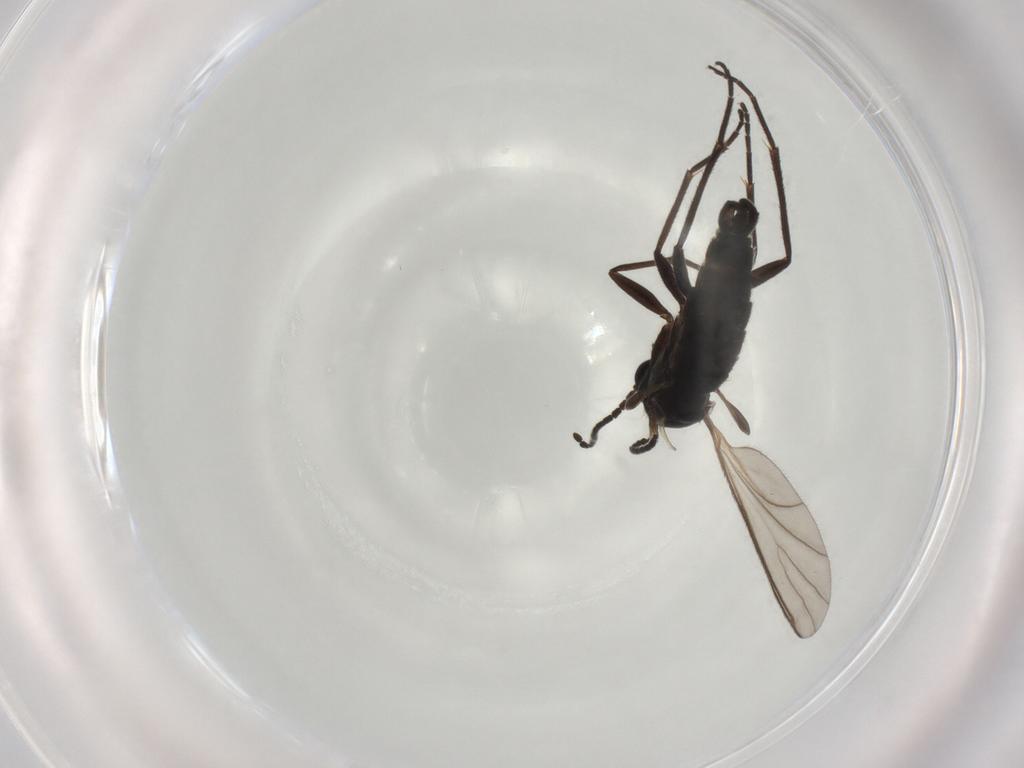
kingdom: Animalia
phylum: Arthropoda
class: Insecta
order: Diptera
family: Sciaridae
